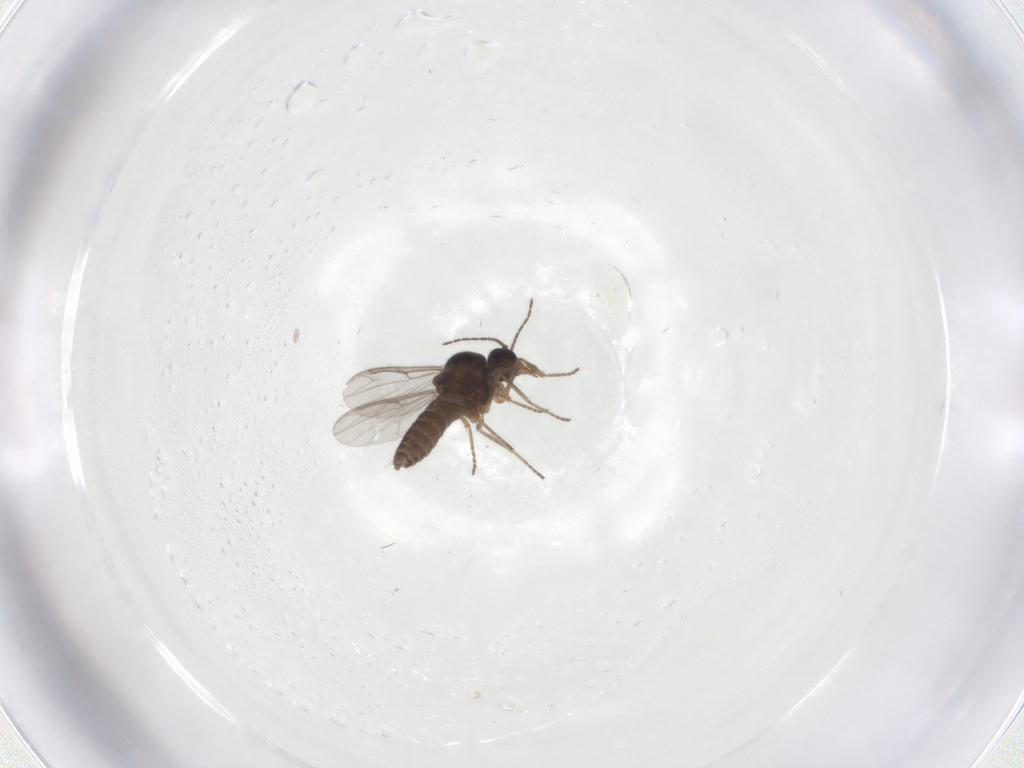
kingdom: Animalia
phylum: Arthropoda
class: Insecta
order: Diptera
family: Ceratopogonidae
